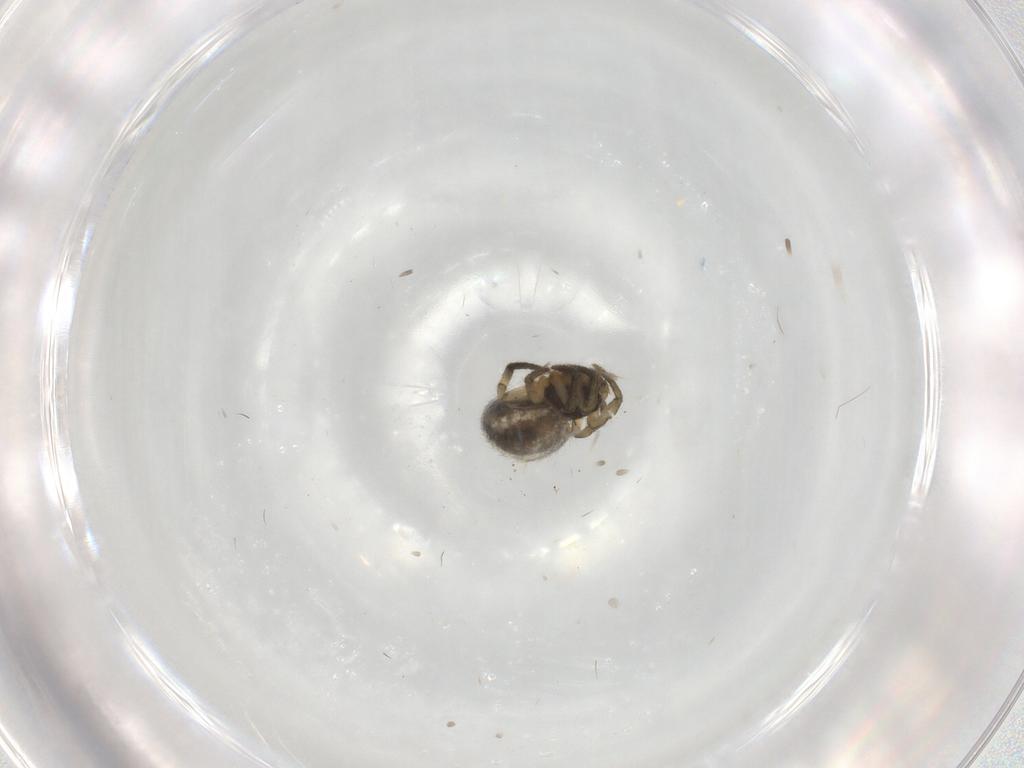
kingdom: Animalia
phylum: Arthropoda
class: Arachnida
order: Araneae
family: Araneidae
